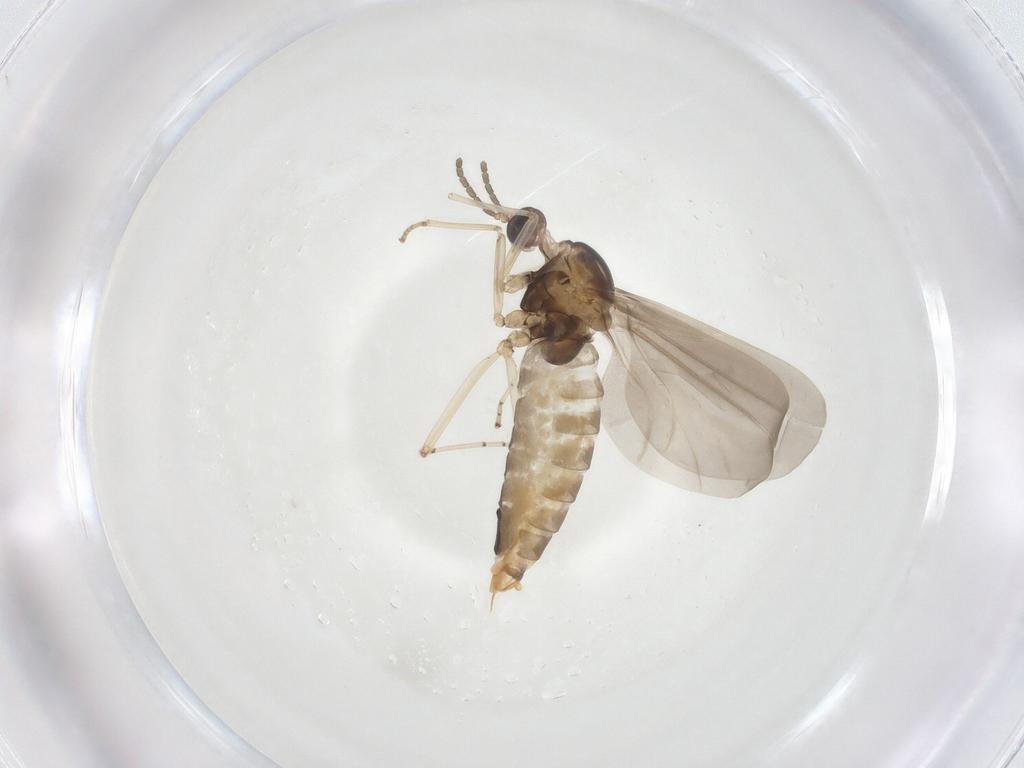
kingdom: Animalia
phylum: Arthropoda
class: Insecta
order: Diptera
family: Cecidomyiidae
